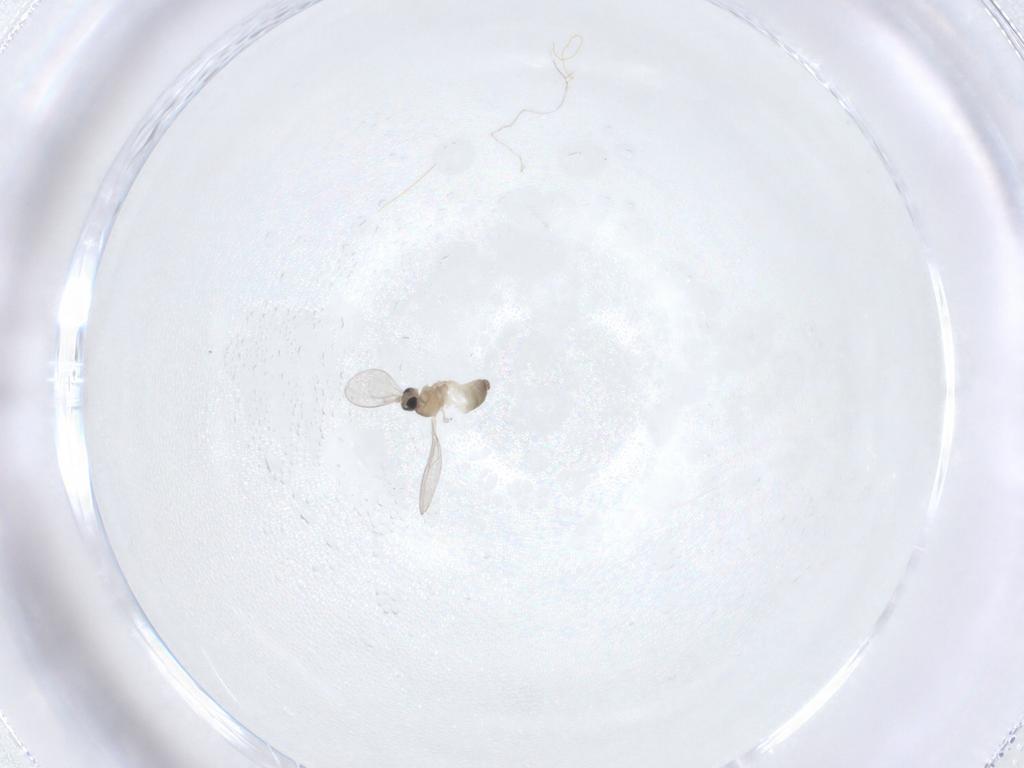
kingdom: Animalia
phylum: Arthropoda
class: Insecta
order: Diptera
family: Cecidomyiidae
